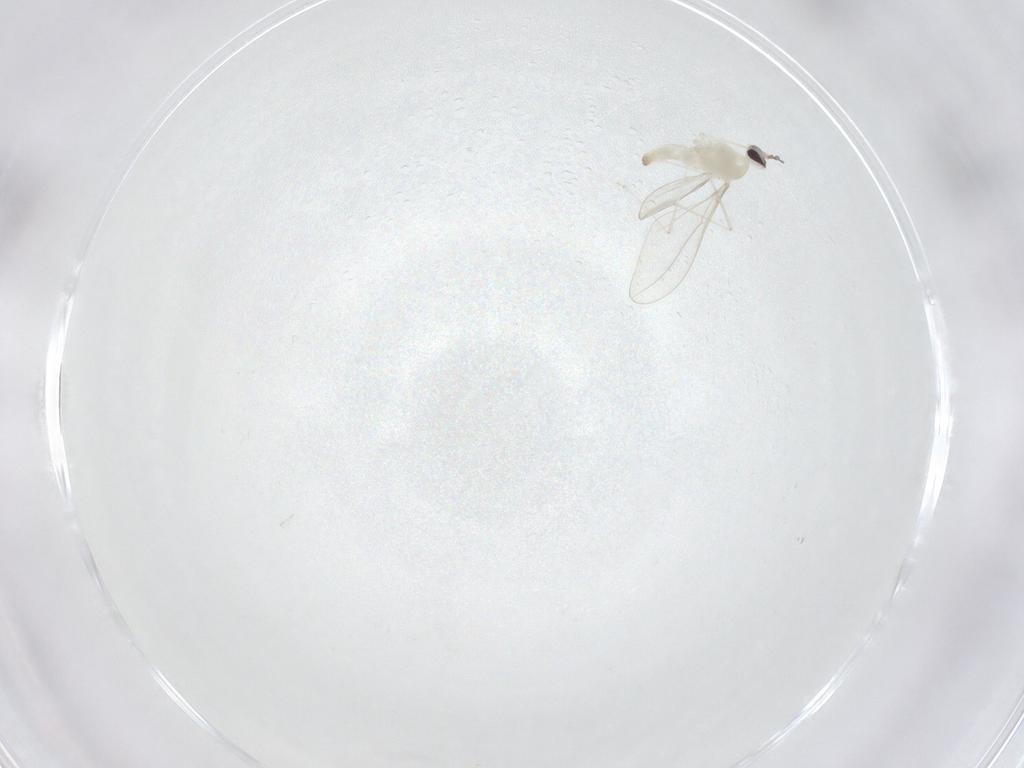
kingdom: Animalia
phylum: Arthropoda
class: Insecta
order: Diptera
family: Cecidomyiidae
